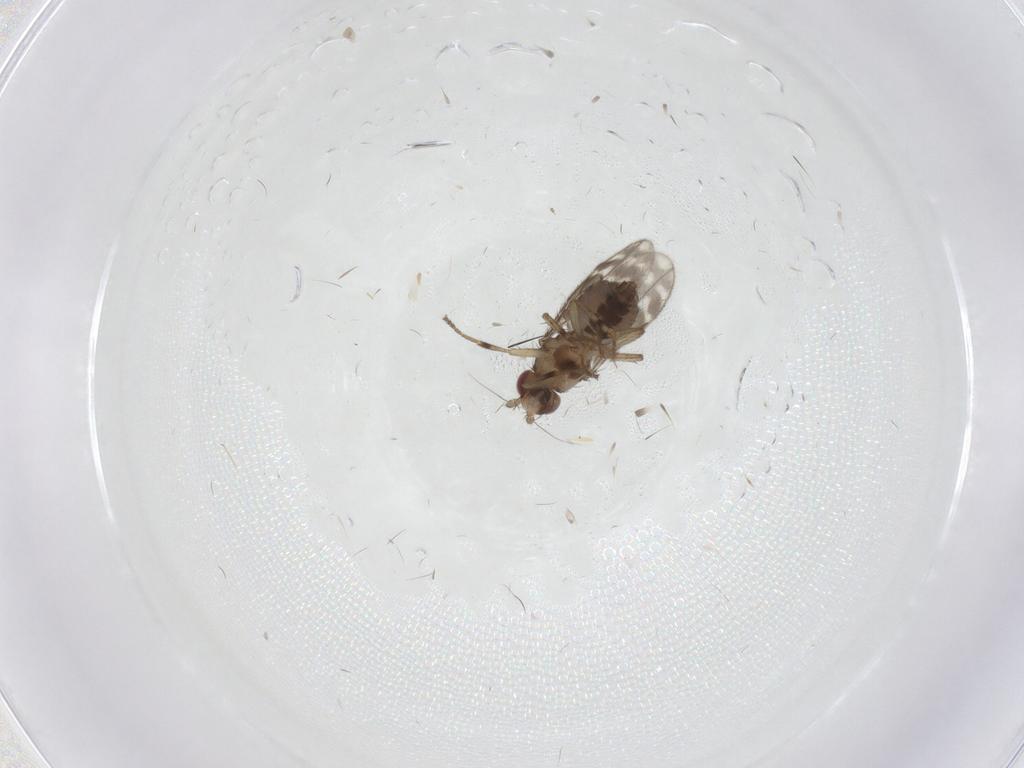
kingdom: Animalia
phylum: Arthropoda
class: Insecta
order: Diptera
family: Sphaeroceridae
